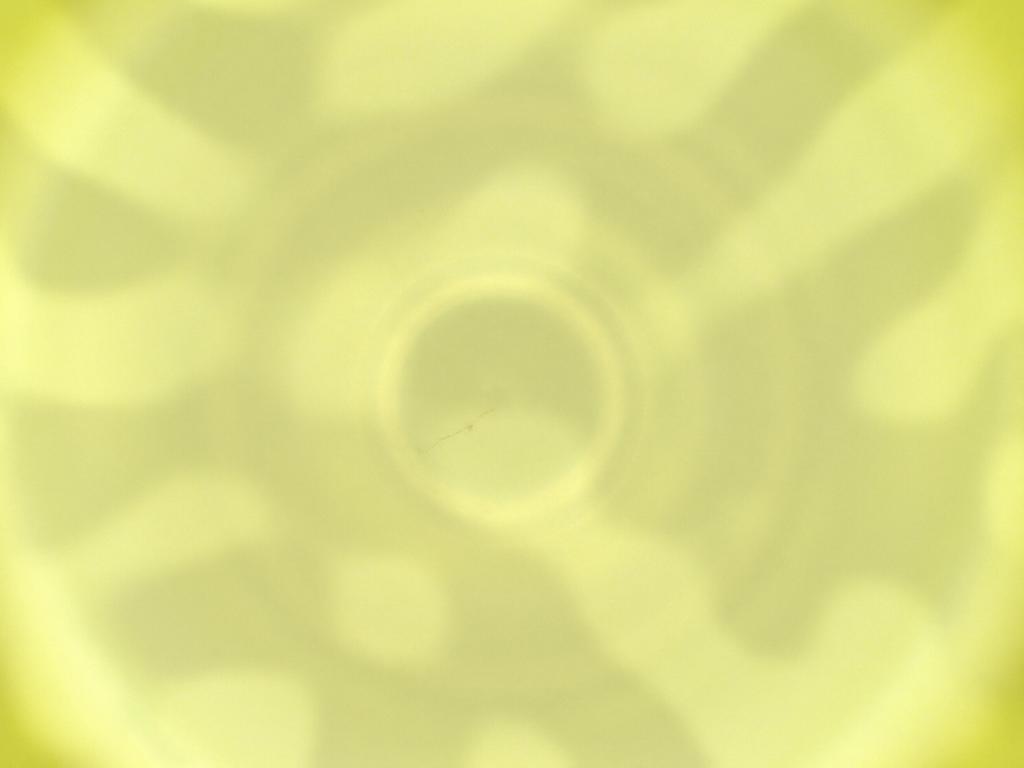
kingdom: Animalia
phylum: Arthropoda
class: Insecta
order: Diptera
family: Cecidomyiidae
